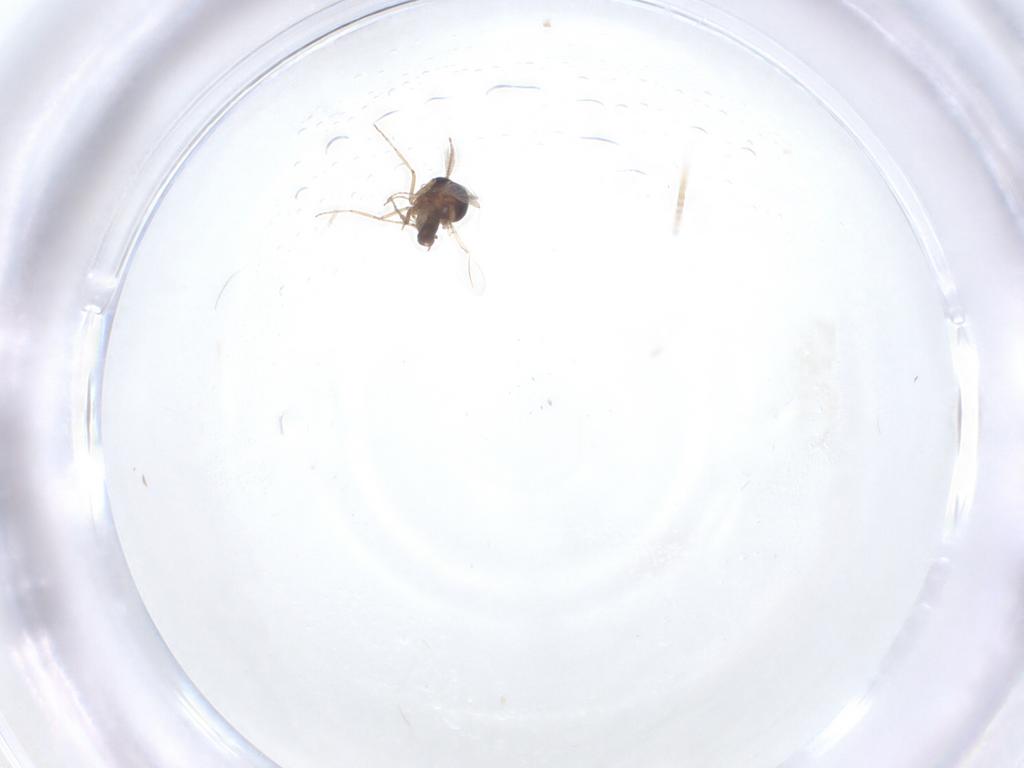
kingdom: Animalia
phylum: Arthropoda
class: Insecta
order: Diptera
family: Ceratopogonidae
